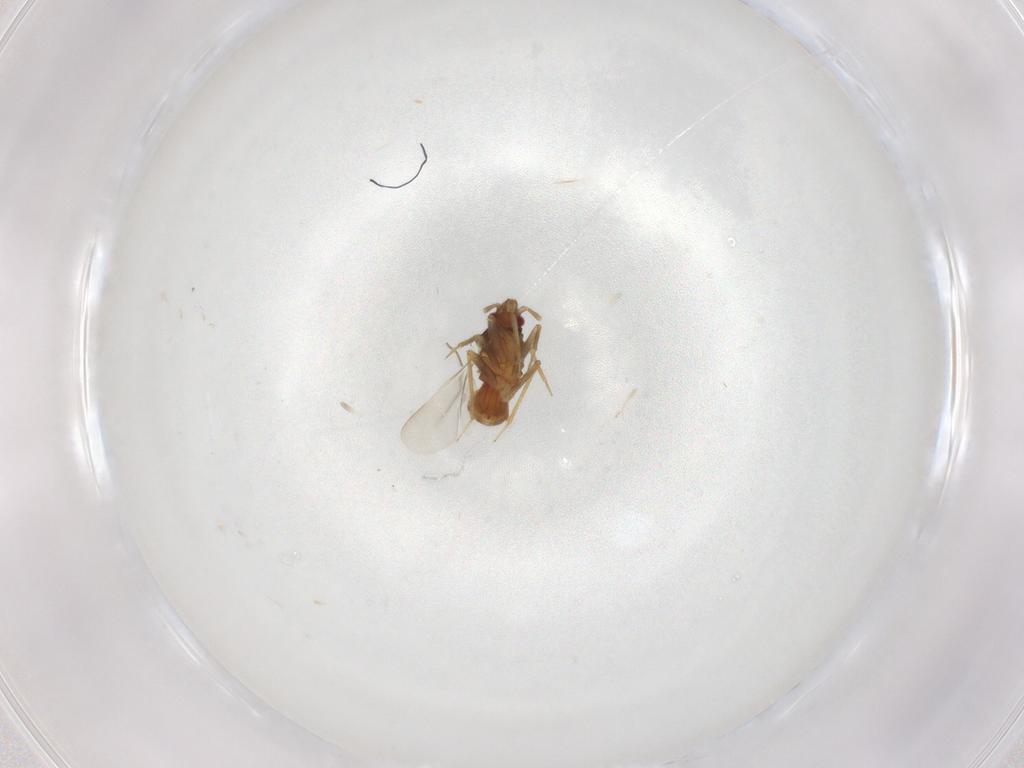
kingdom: Animalia
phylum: Arthropoda
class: Insecta
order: Hemiptera
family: Ceratocombidae
